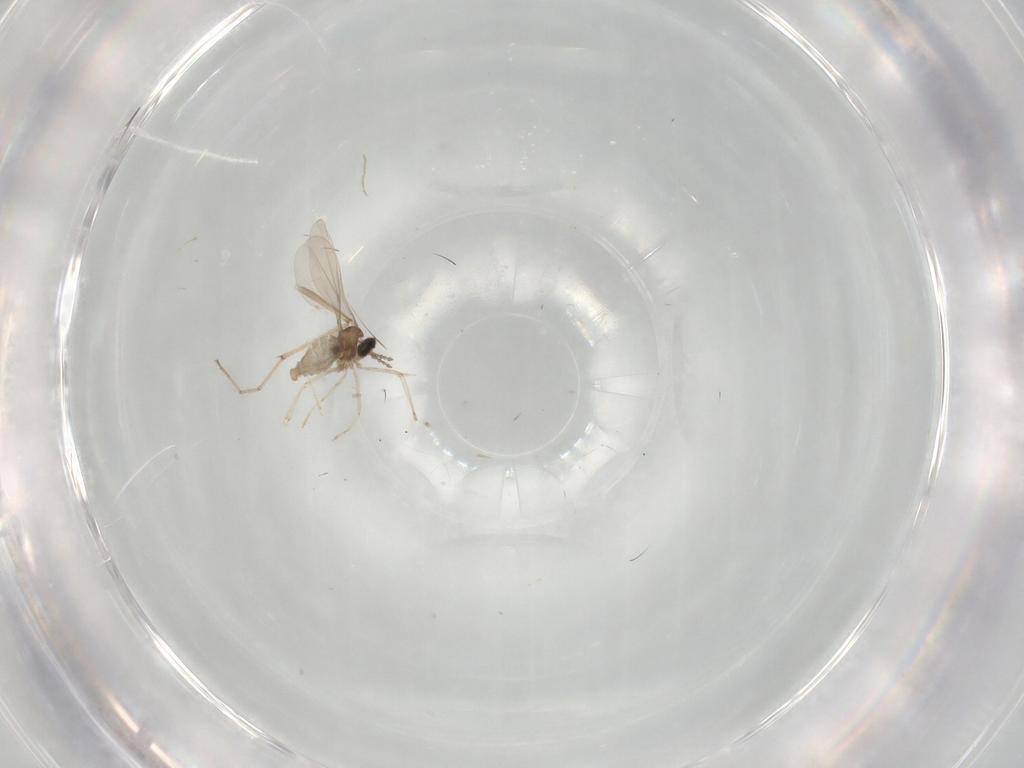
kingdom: Animalia
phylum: Arthropoda
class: Insecta
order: Diptera
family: Cecidomyiidae
